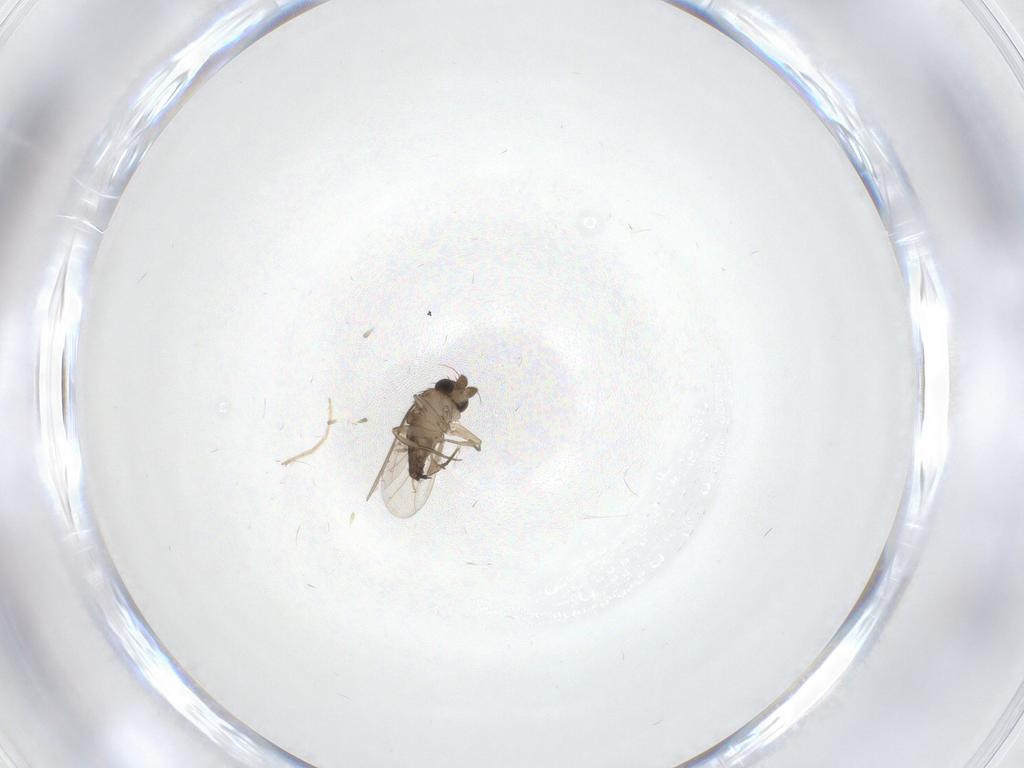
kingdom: Animalia
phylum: Arthropoda
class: Insecta
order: Diptera
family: Phoridae
